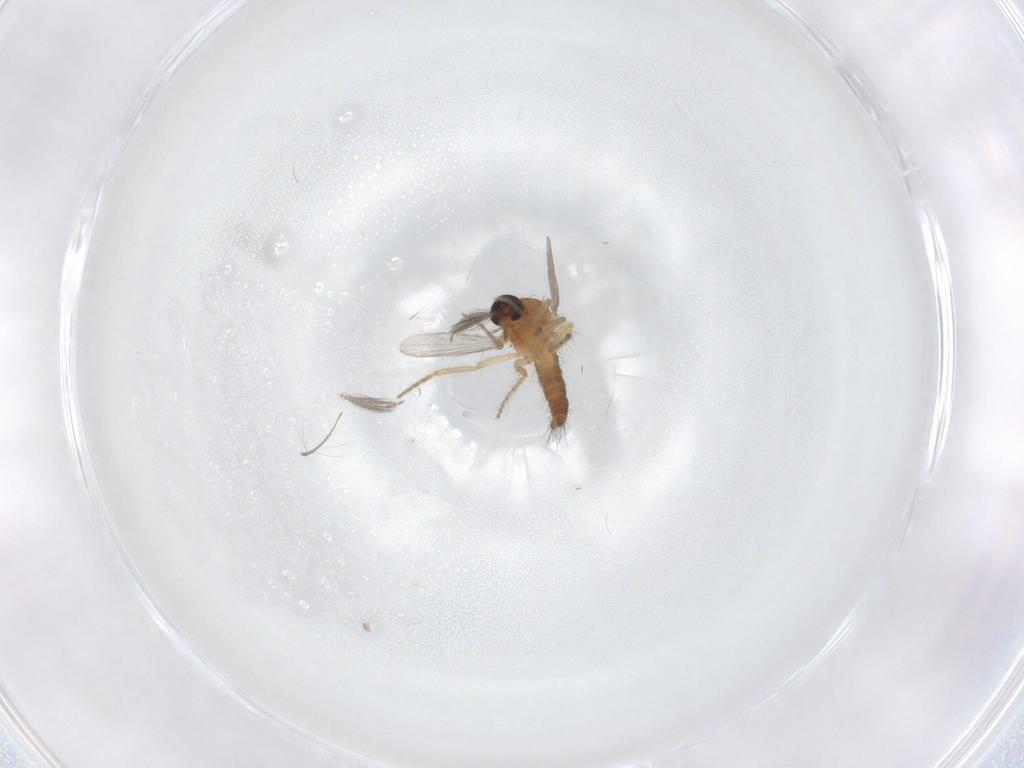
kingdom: Animalia
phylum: Arthropoda
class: Insecta
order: Diptera
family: Ceratopogonidae
